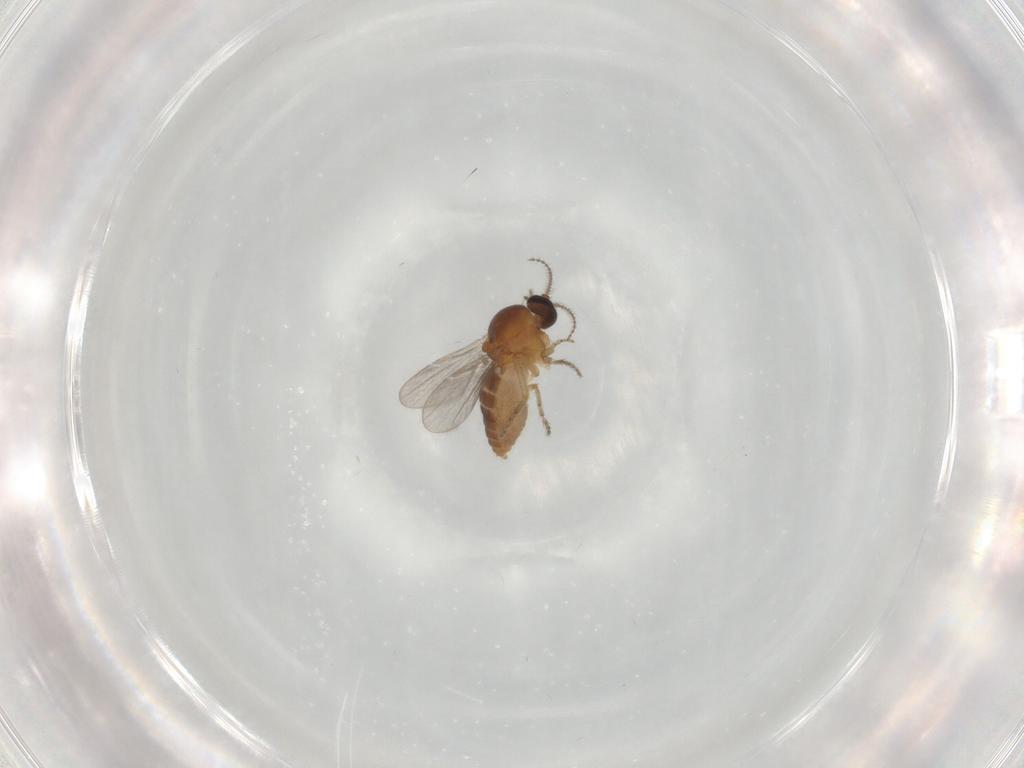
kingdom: Animalia
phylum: Arthropoda
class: Insecta
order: Diptera
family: Ceratopogonidae
